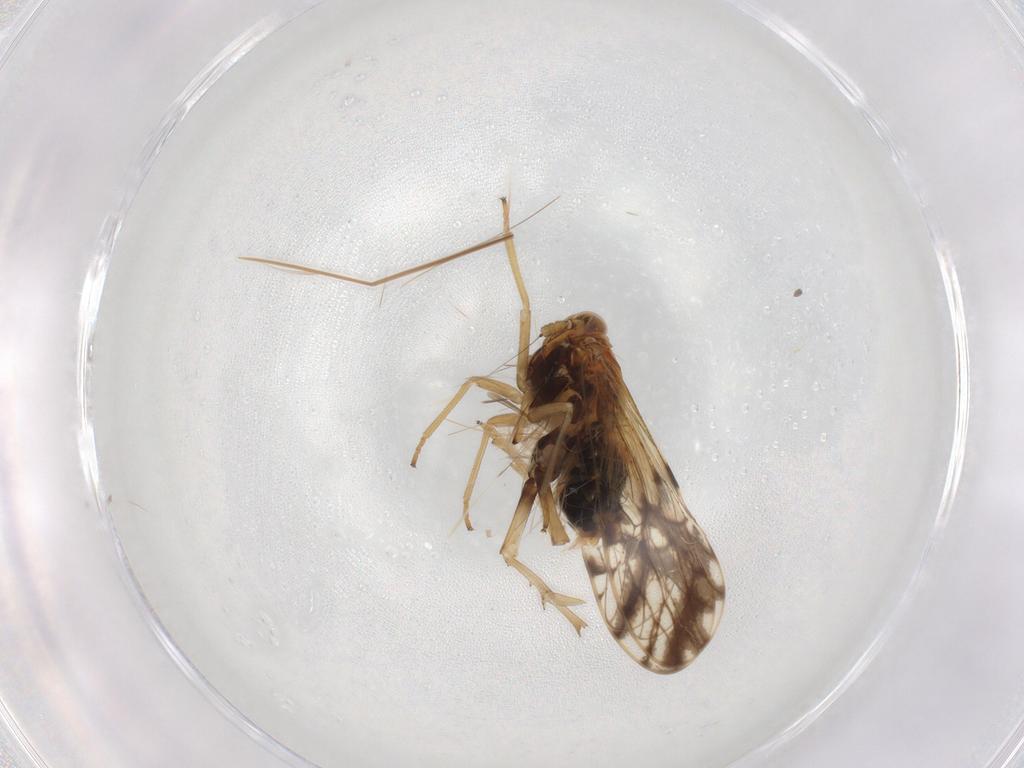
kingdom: Animalia
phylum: Arthropoda
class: Insecta
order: Hemiptera
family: Delphacidae
